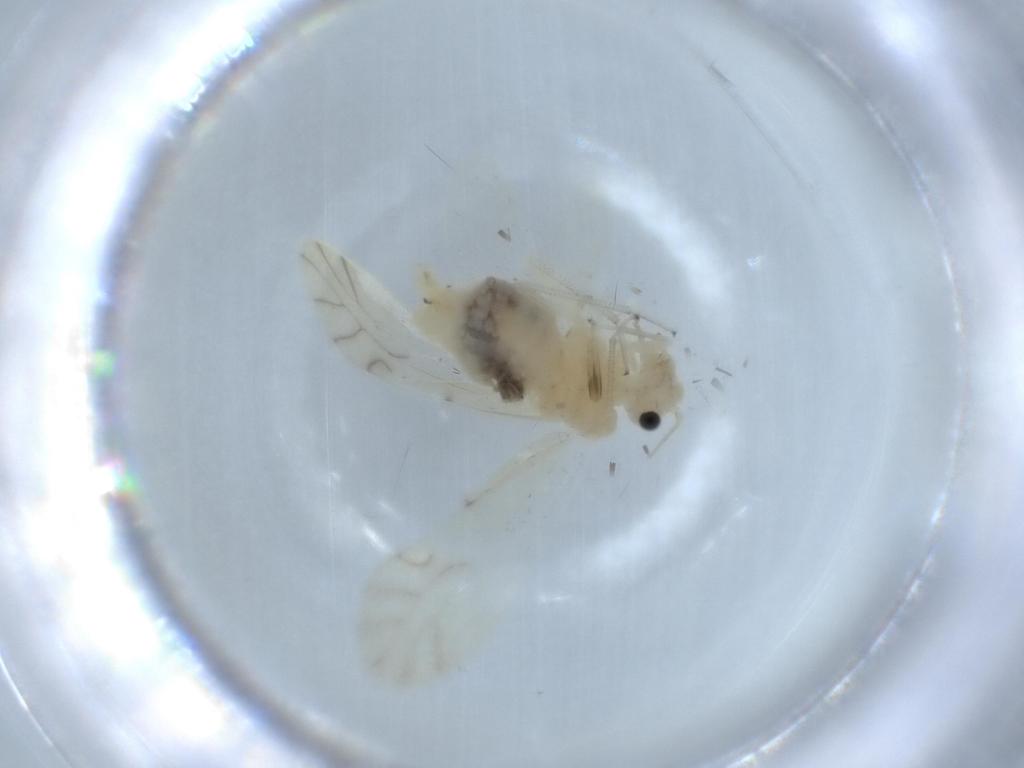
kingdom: Animalia
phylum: Arthropoda
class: Insecta
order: Psocodea
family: Caeciliusidae
